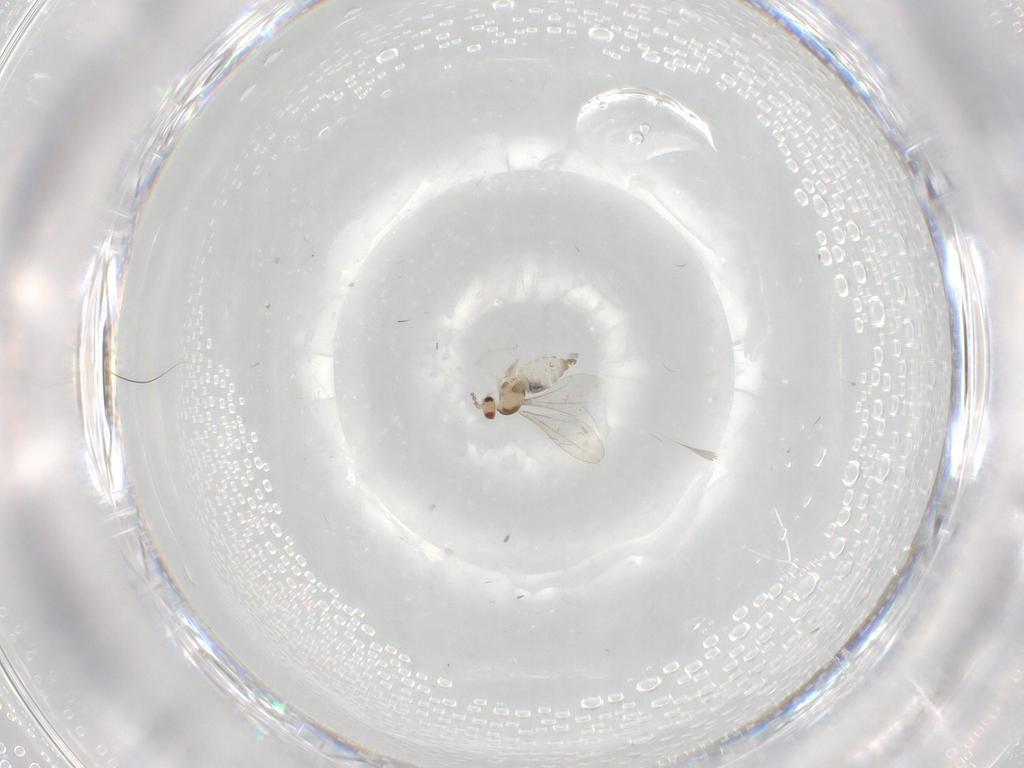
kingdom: Animalia
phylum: Arthropoda
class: Insecta
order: Diptera
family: Cecidomyiidae
